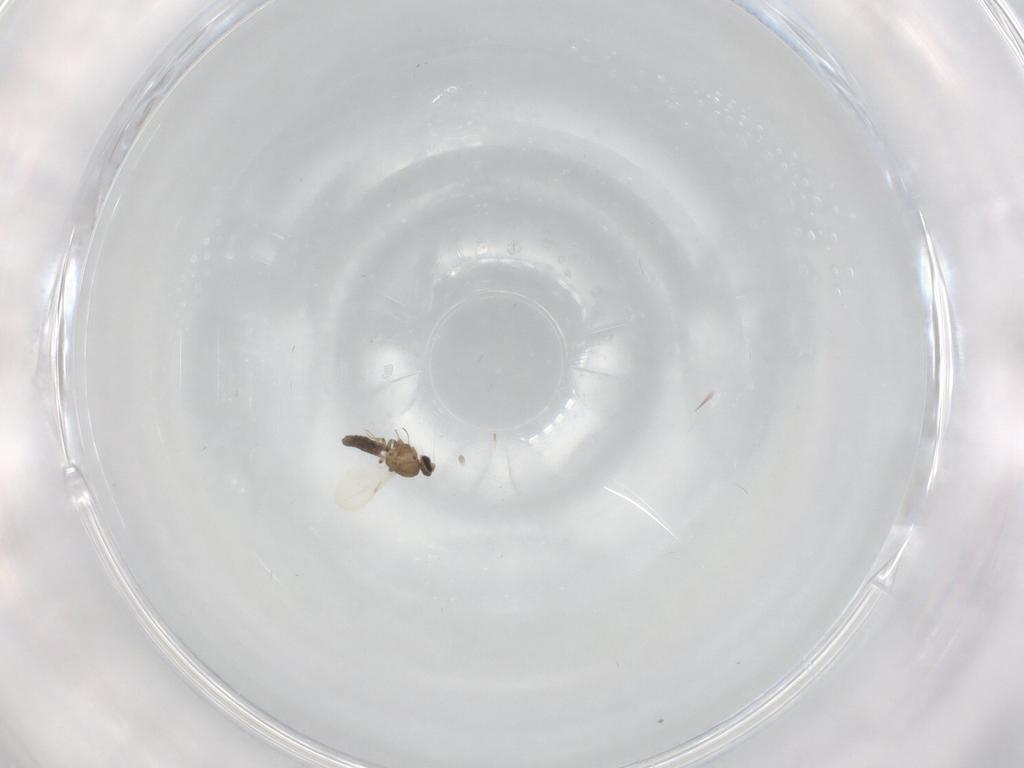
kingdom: Animalia
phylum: Arthropoda
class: Insecta
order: Diptera
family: Ceratopogonidae
